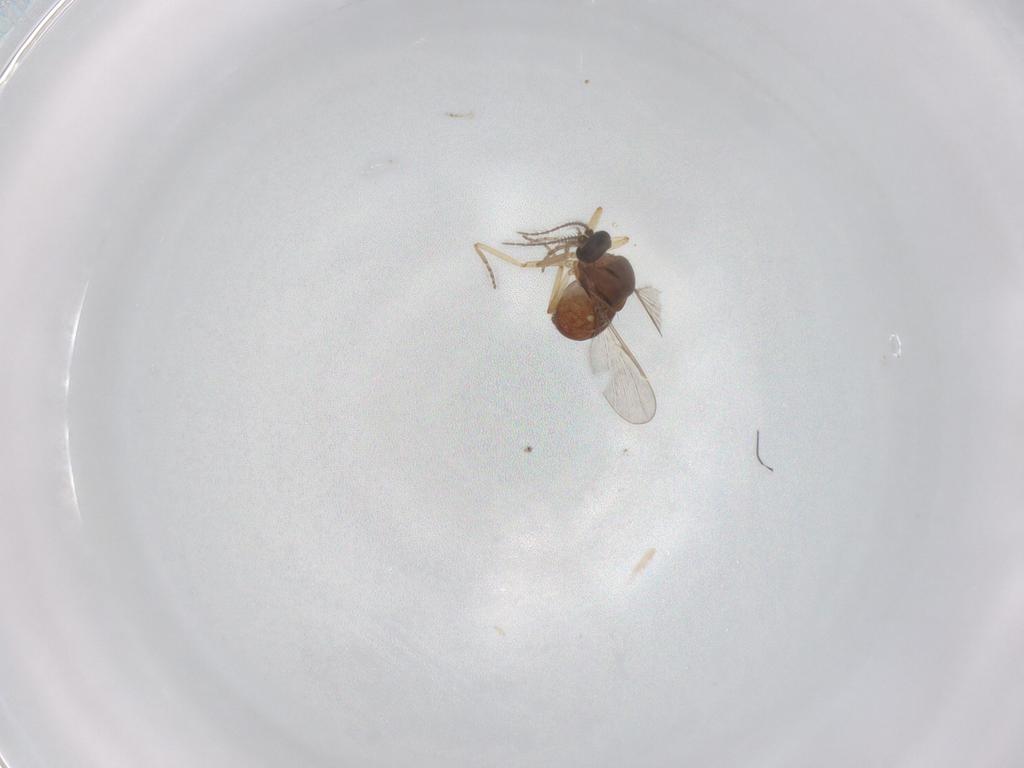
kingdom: Animalia
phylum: Arthropoda
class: Insecta
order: Diptera
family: Ceratopogonidae
